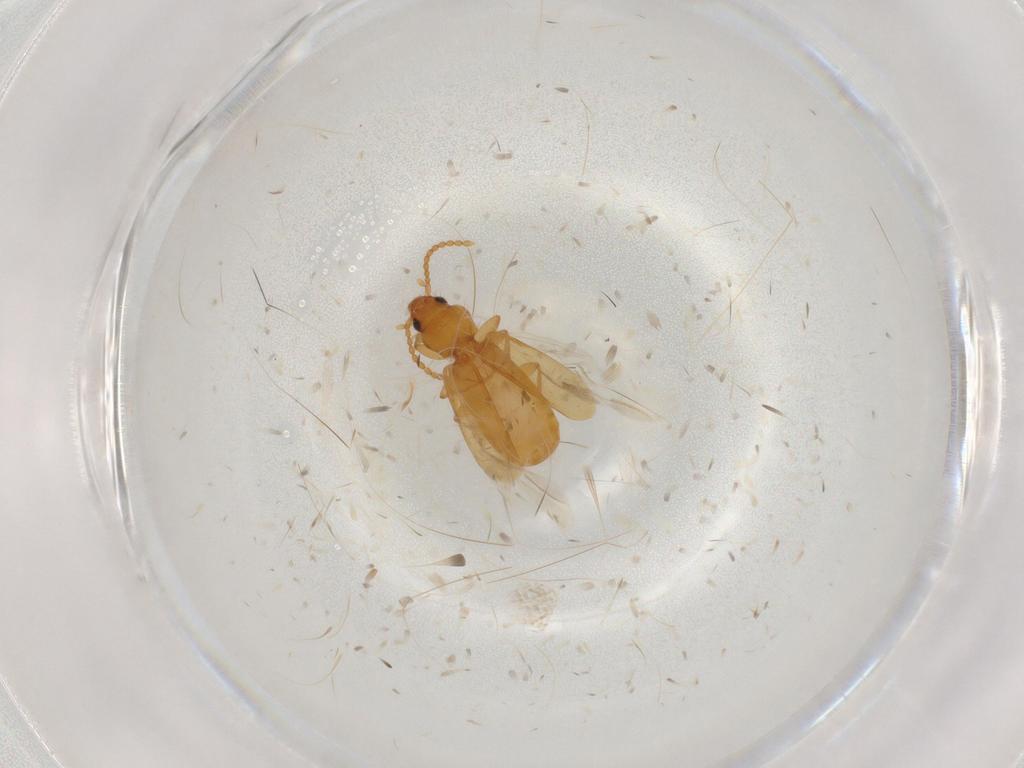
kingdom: Animalia
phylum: Arthropoda
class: Insecta
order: Coleoptera
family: Carabidae
